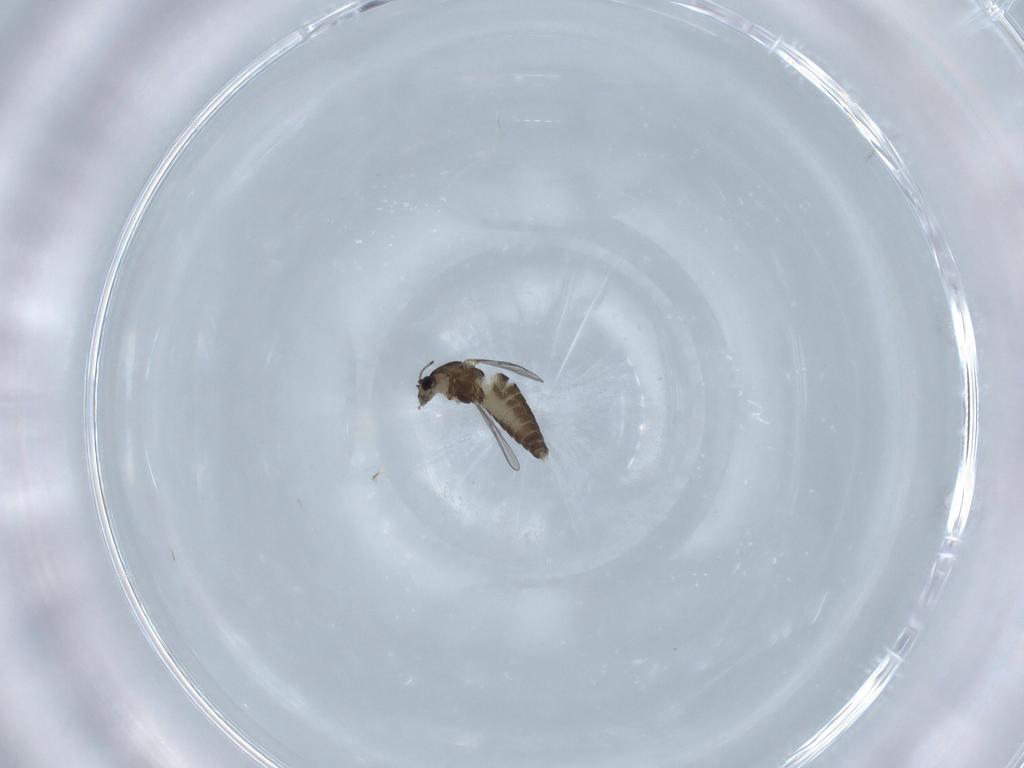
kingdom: Animalia
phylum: Arthropoda
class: Insecta
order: Diptera
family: Chironomidae
